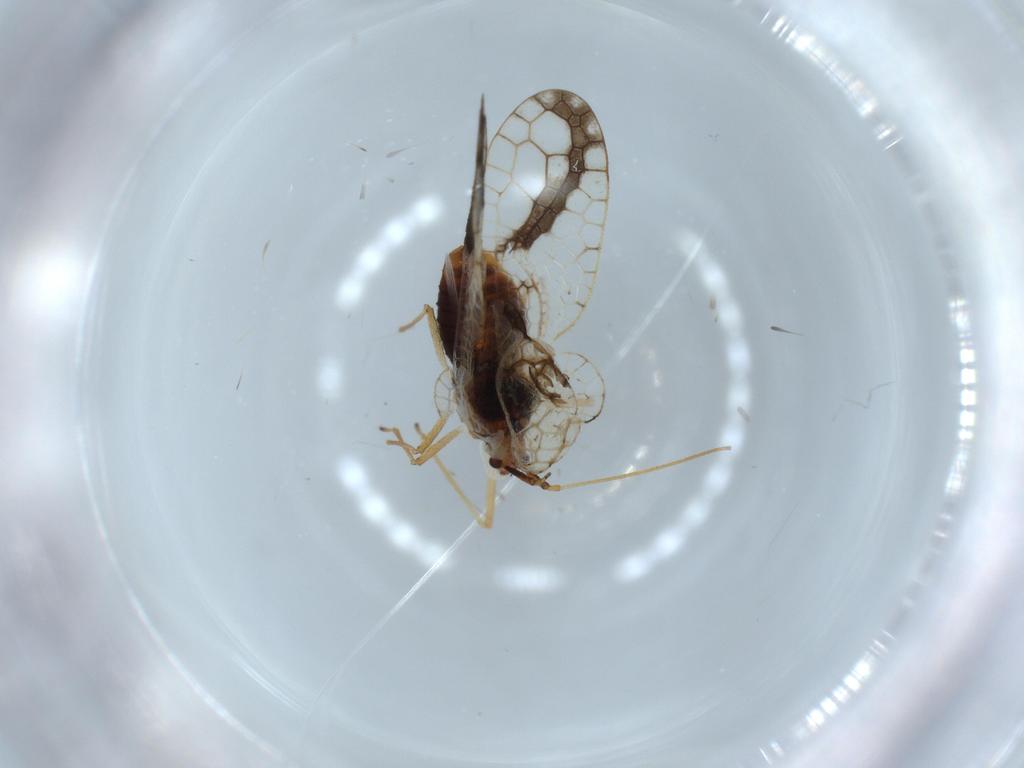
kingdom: Animalia
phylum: Arthropoda
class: Insecta
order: Hemiptera
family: Tingidae
